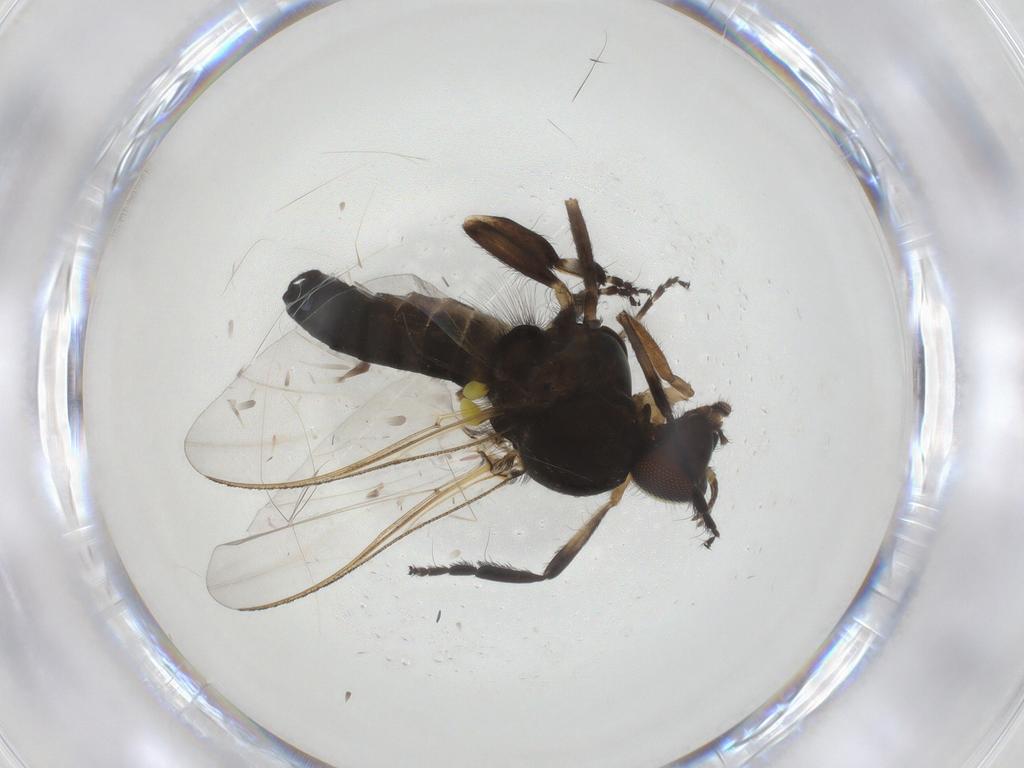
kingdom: Animalia
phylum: Arthropoda
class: Insecta
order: Diptera
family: Simuliidae
